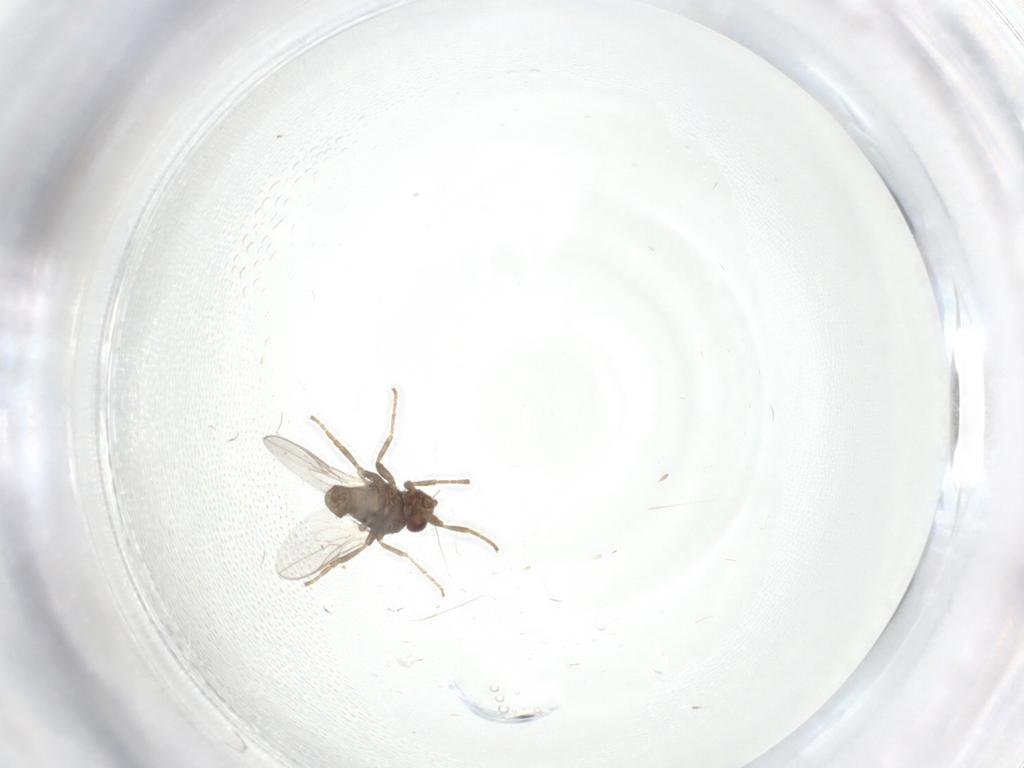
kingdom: Animalia
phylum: Arthropoda
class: Insecta
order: Diptera
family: Sphaeroceridae
